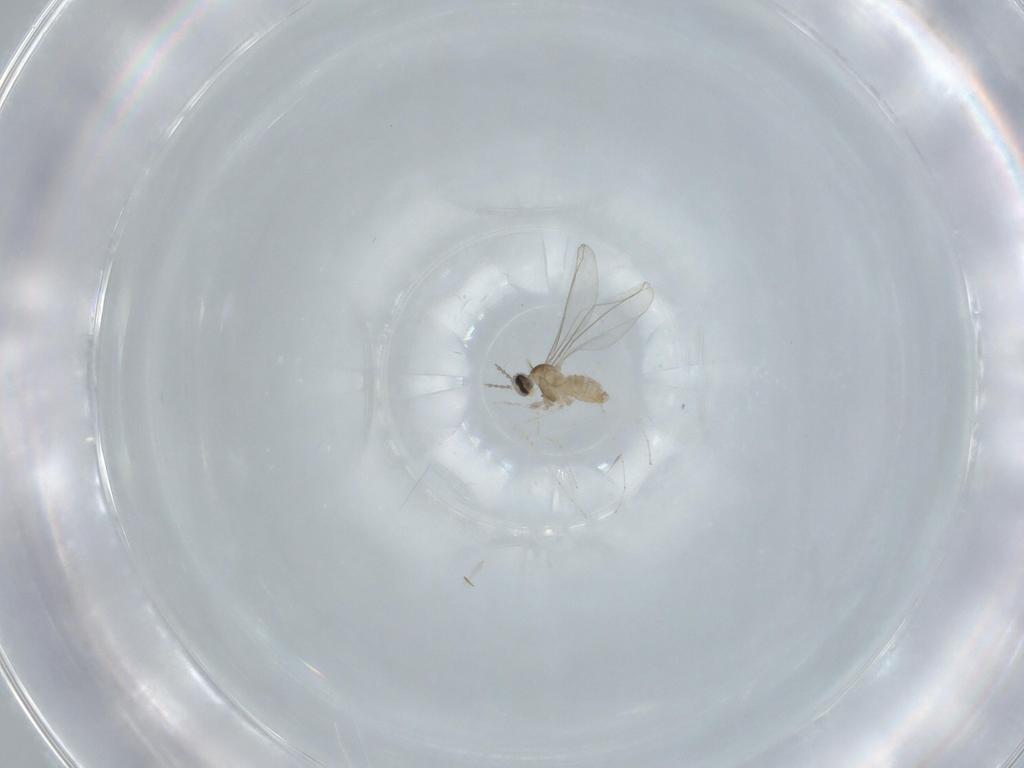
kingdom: Animalia
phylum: Arthropoda
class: Insecta
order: Diptera
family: Cecidomyiidae
